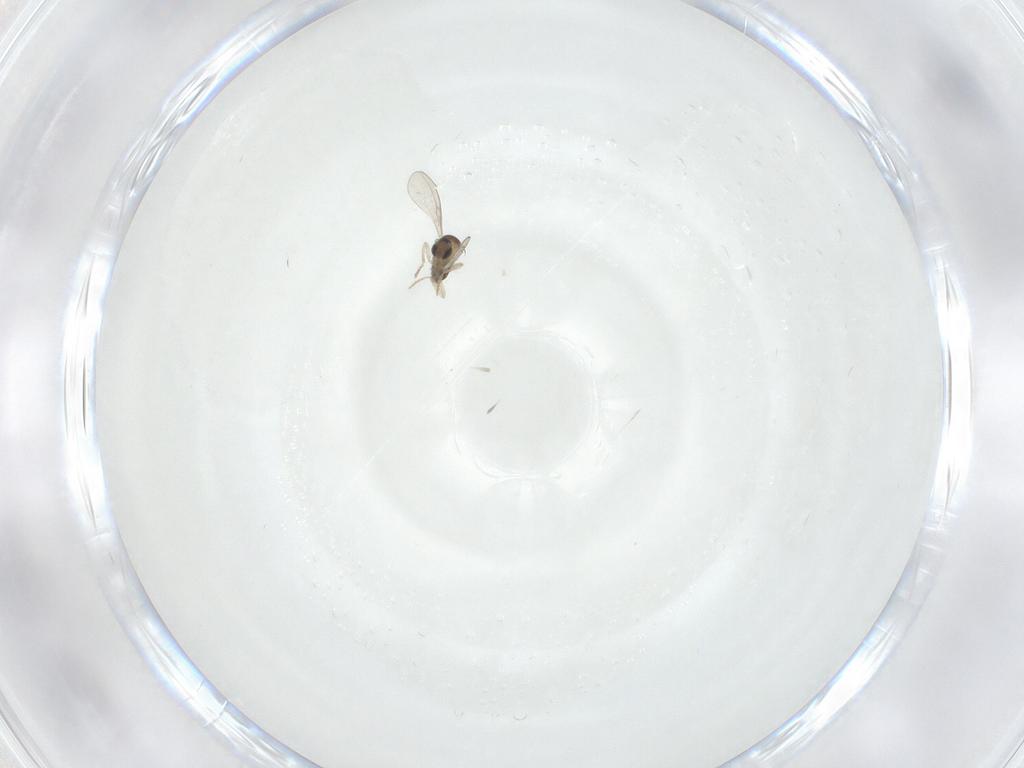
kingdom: Animalia
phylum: Arthropoda
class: Insecta
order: Diptera
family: Cecidomyiidae
